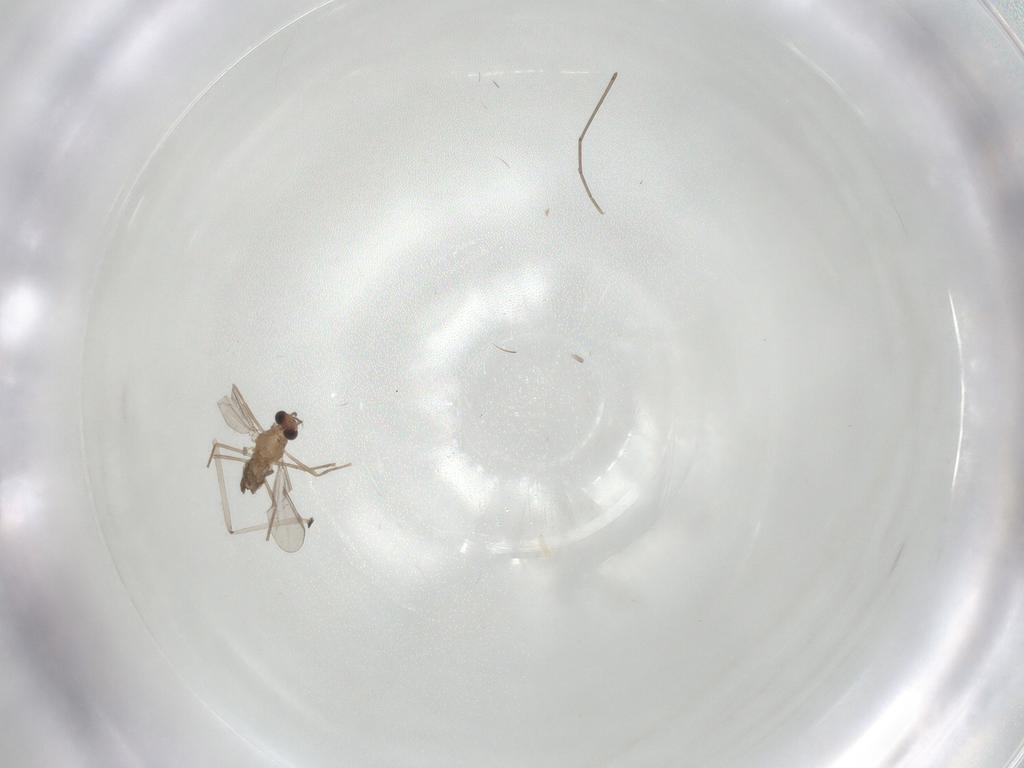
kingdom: Animalia
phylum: Arthropoda
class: Insecta
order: Diptera
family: Chironomidae
